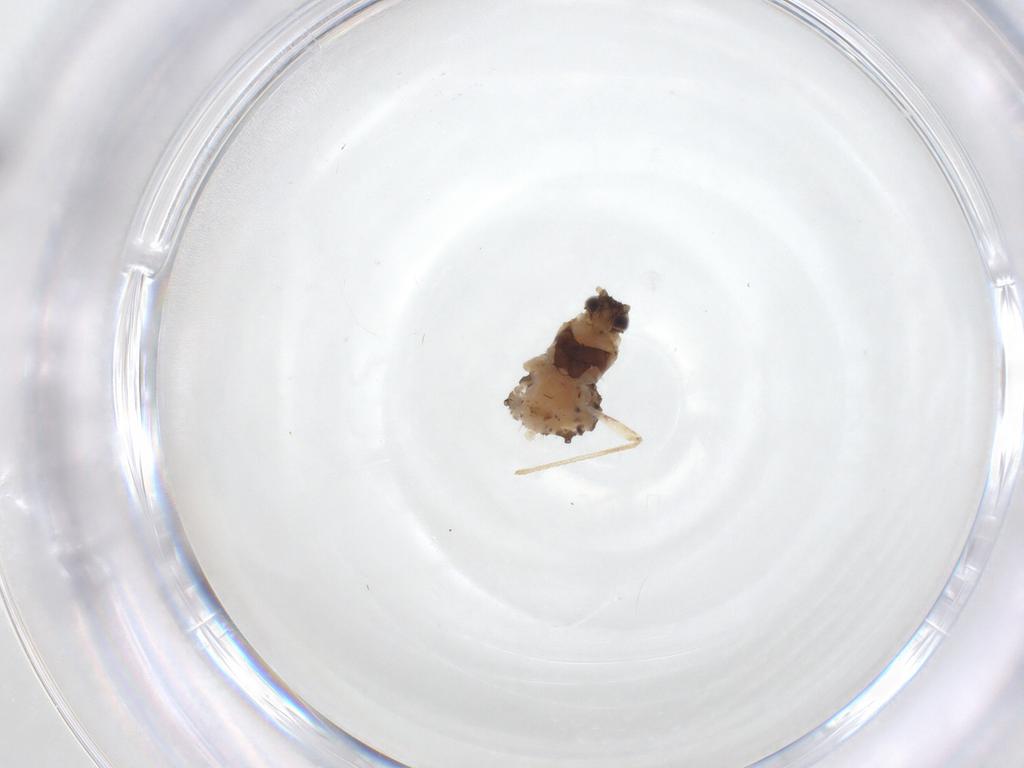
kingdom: Animalia
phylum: Arthropoda
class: Insecta
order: Hemiptera
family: Aphididae
